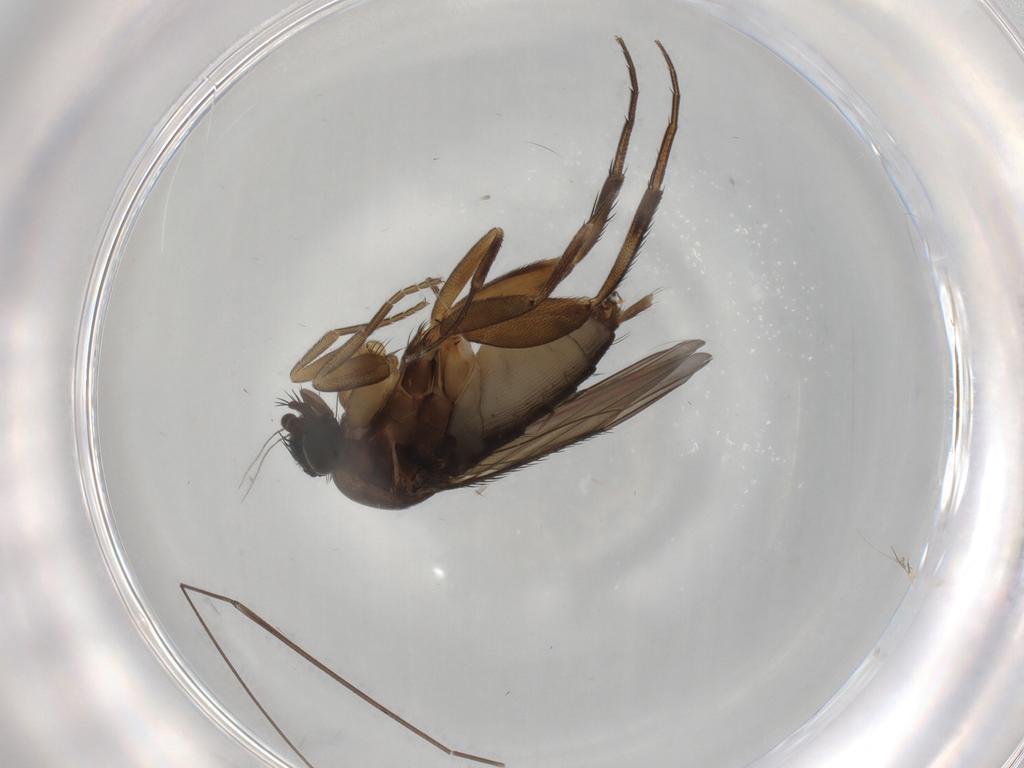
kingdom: Animalia
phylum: Arthropoda
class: Insecta
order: Diptera
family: Phoridae
